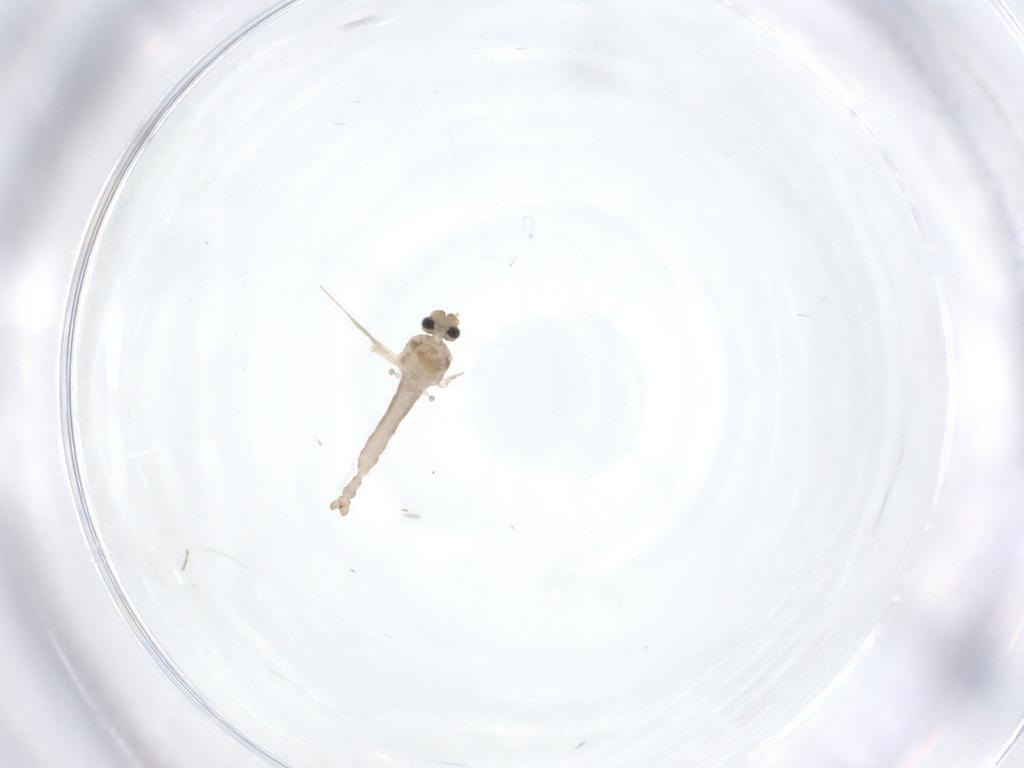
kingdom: Animalia
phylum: Arthropoda
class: Insecta
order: Diptera
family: Ceratopogonidae
